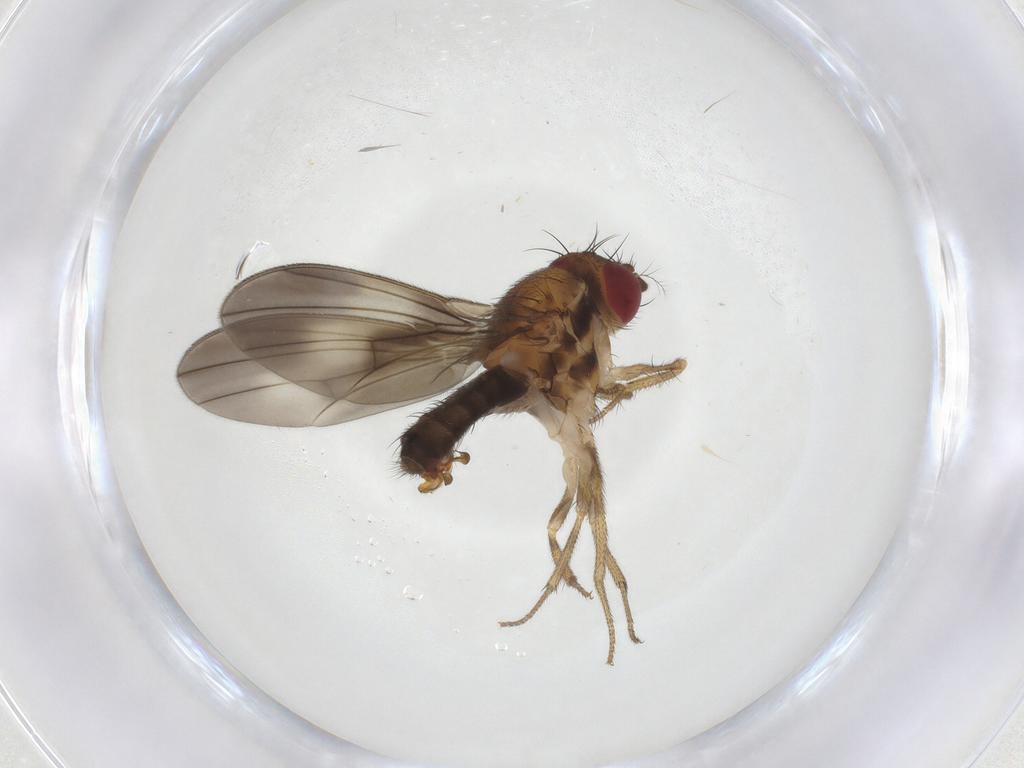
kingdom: Animalia
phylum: Arthropoda
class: Insecta
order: Diptera
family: Drosophilidae
